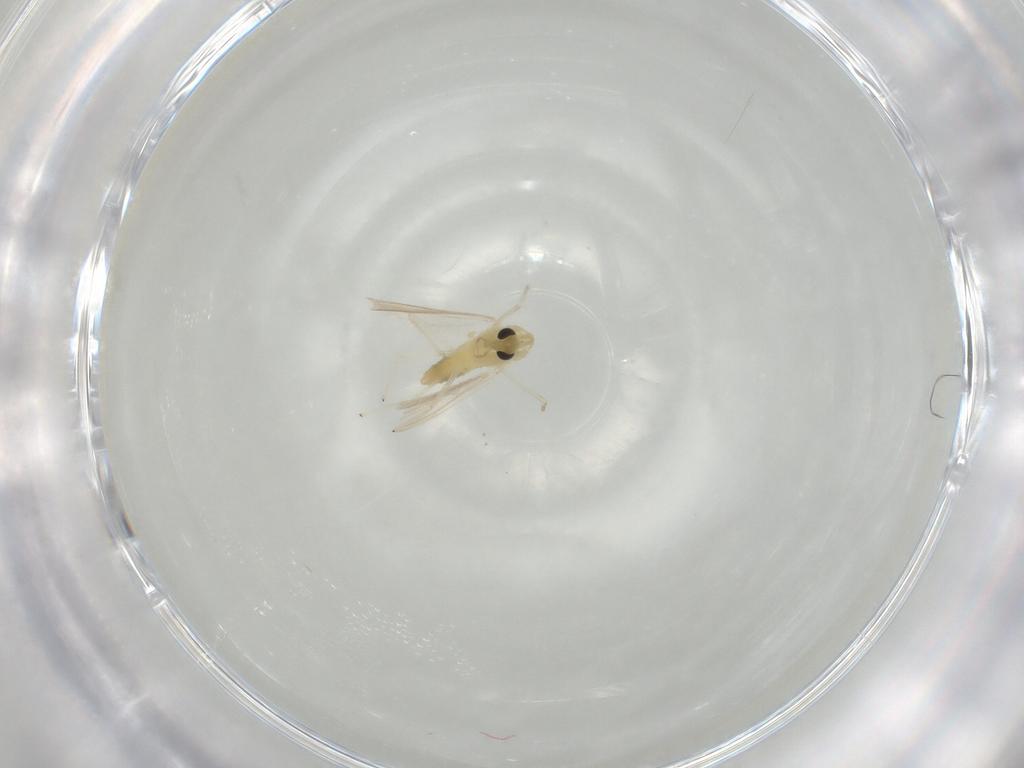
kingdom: Animalia
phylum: Arthropoda
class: Insecta
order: Diptera
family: Chironomidae
